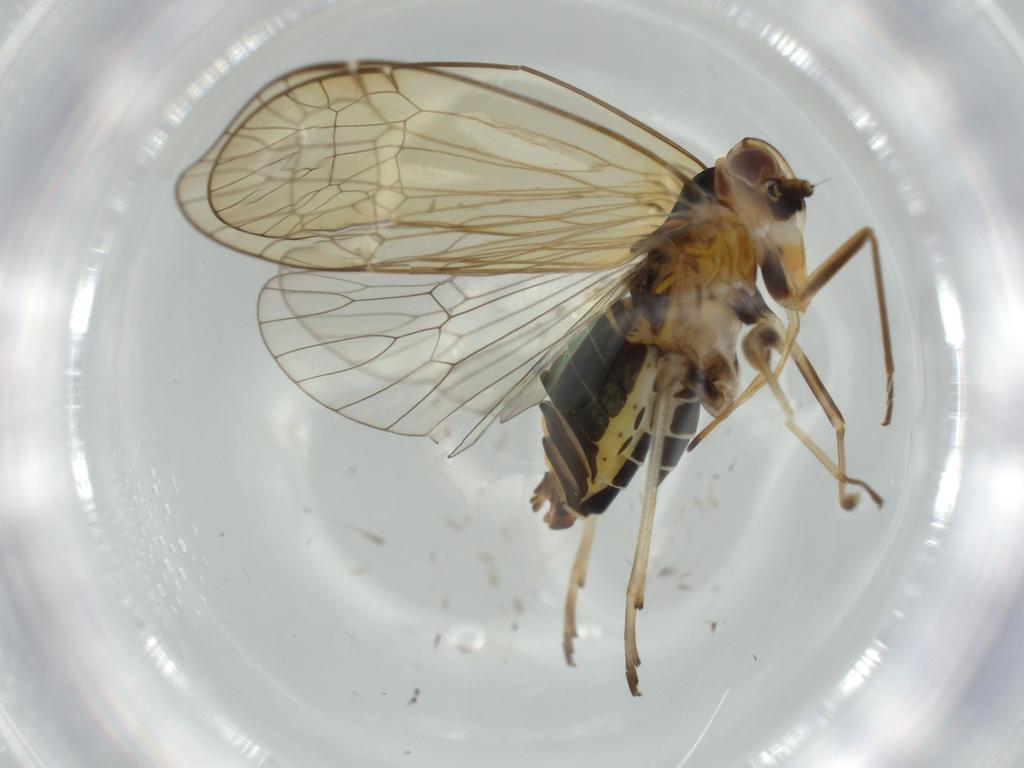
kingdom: Animalia
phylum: Arthropoda
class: Insecta
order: Hemiptera
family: Kinnaridae
